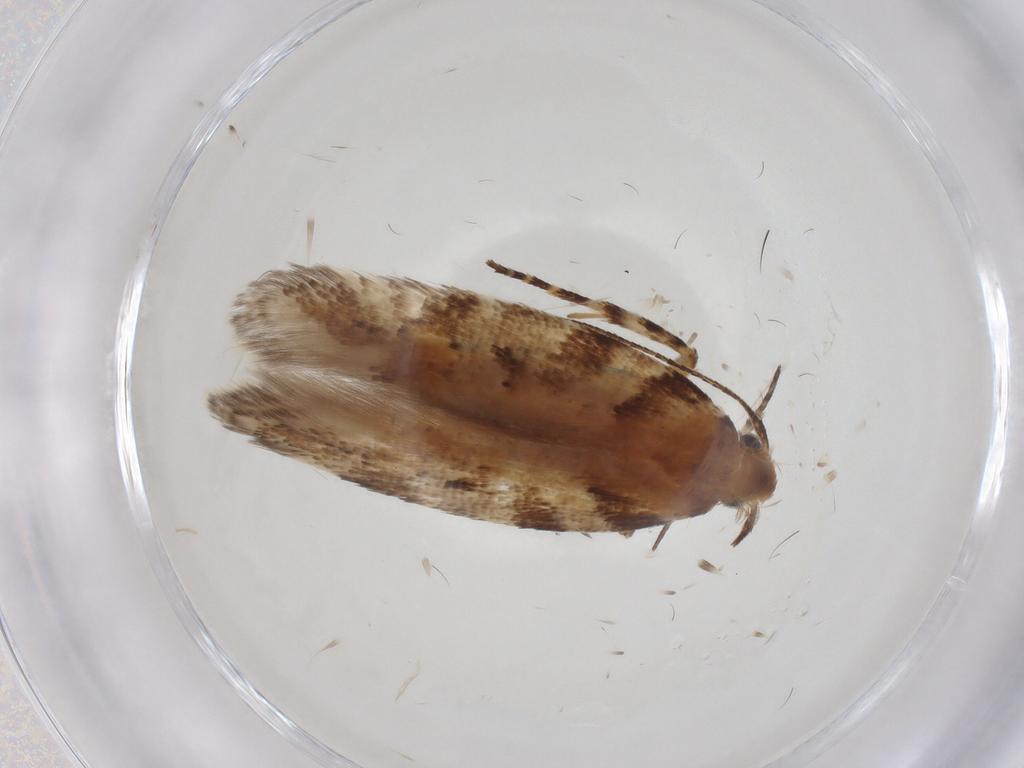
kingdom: Animalia
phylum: Arthropoda
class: Insecta
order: Lepidoptera
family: Gelechiidae
